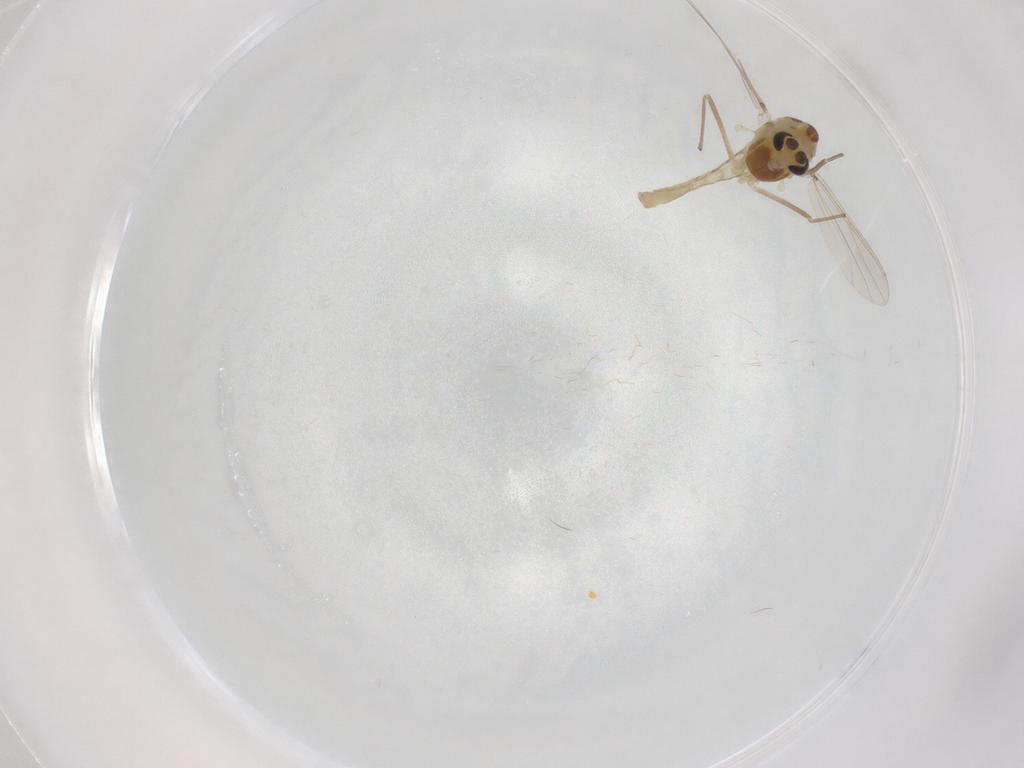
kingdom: Animalia
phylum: Arthropoda
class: Insecta
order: Diptera
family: Chironomidae
